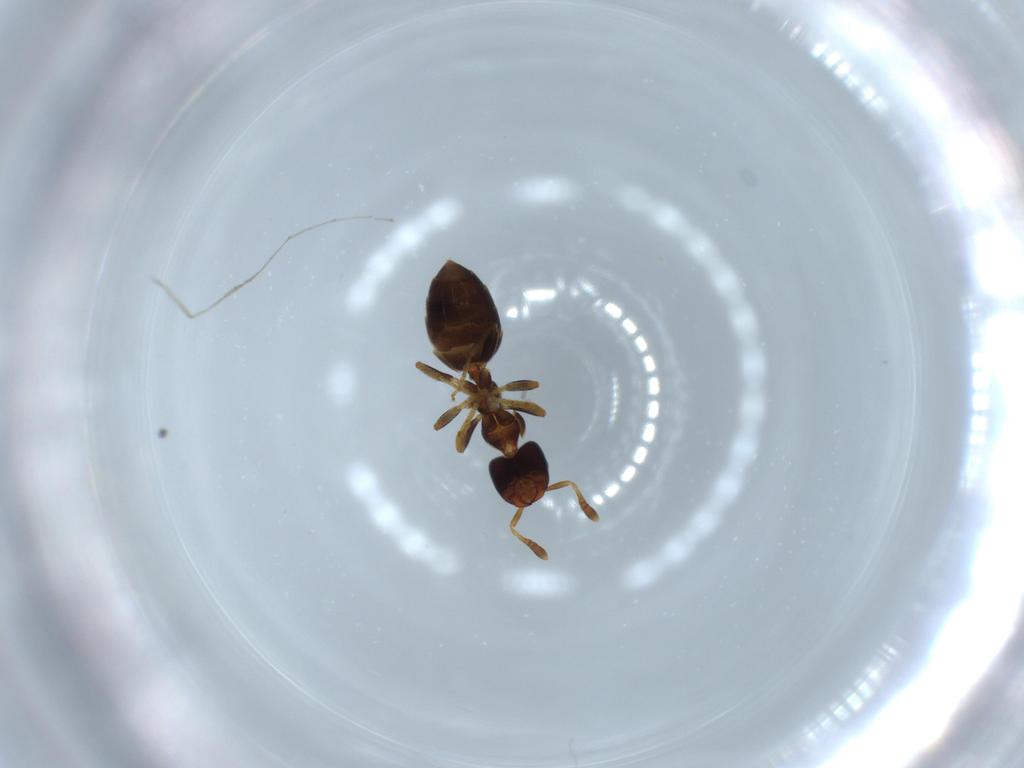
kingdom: Animalia
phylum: Arthropoda
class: Insecta
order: Hymenoptera
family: Formicidae
